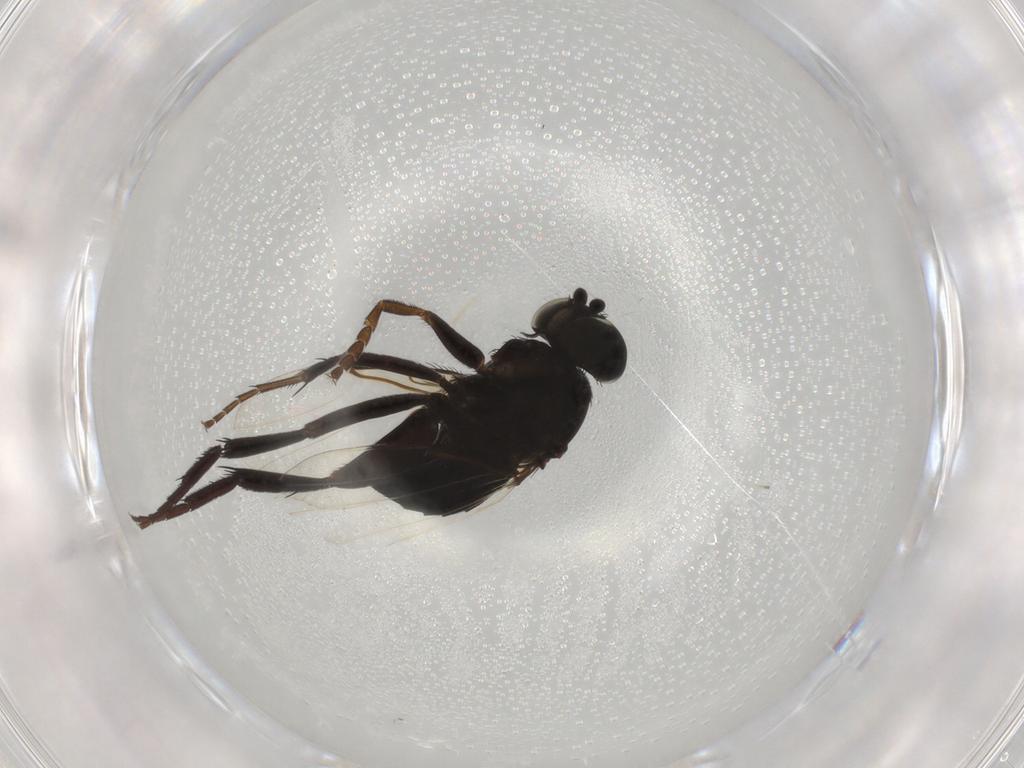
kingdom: Animalia
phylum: Arthropoda
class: Insecta
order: Diptera
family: Phoridae
